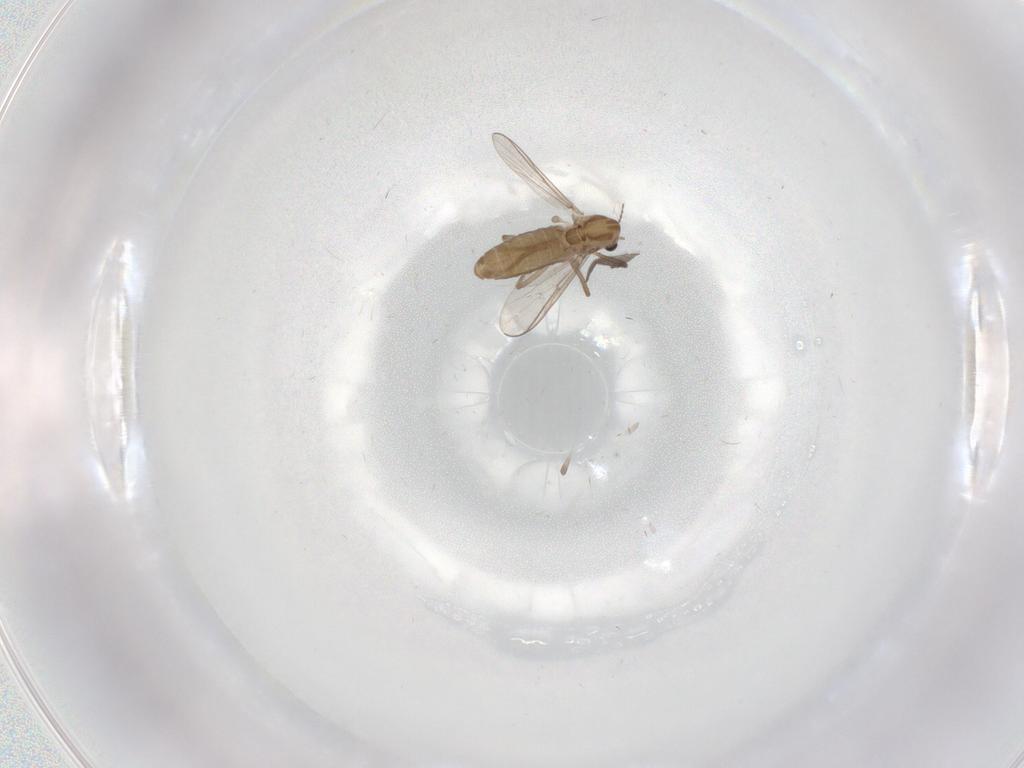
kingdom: Animalia
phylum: Arthropoda
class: Insecta
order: Diptera
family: Chironomidae
